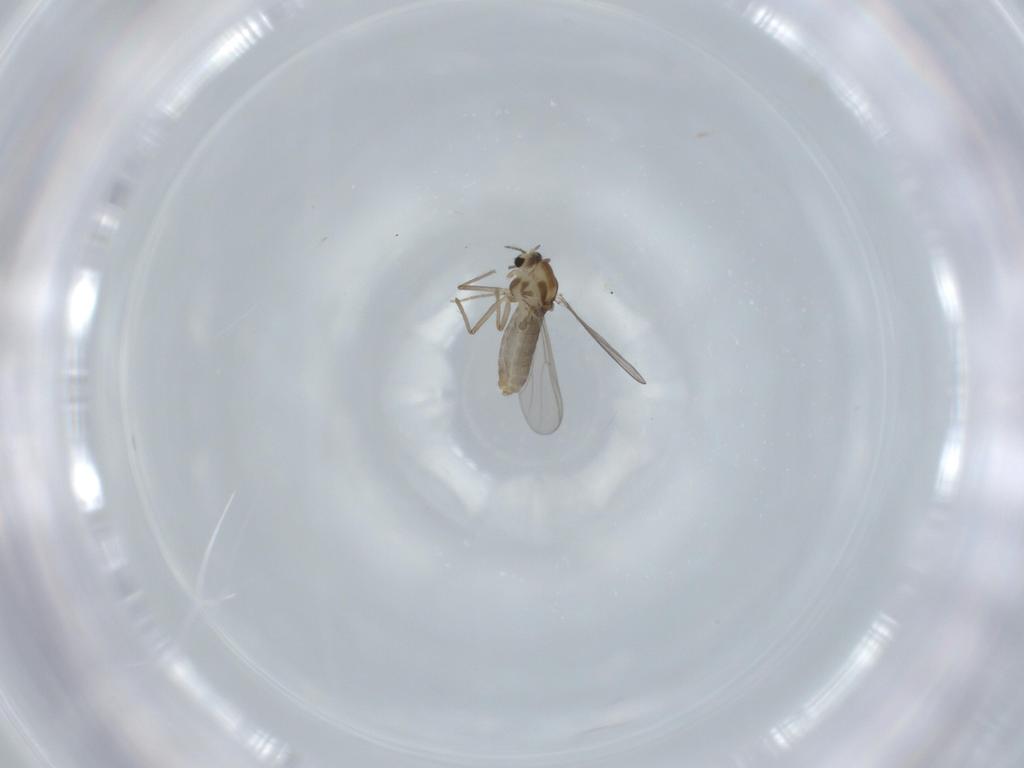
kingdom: Animalia
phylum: Arthropoda
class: Insecta
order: Diptera
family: Chironomidae
